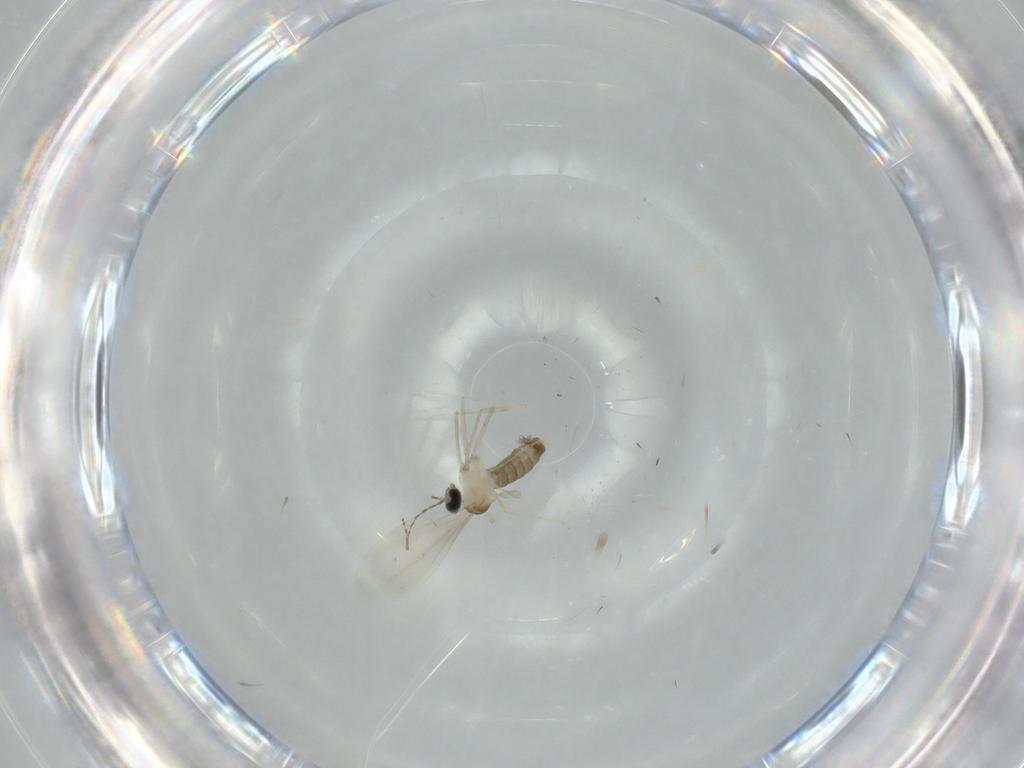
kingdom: Animalia
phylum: Arthropoda
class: Insecta
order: Diptera
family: Cecidomyiidae
